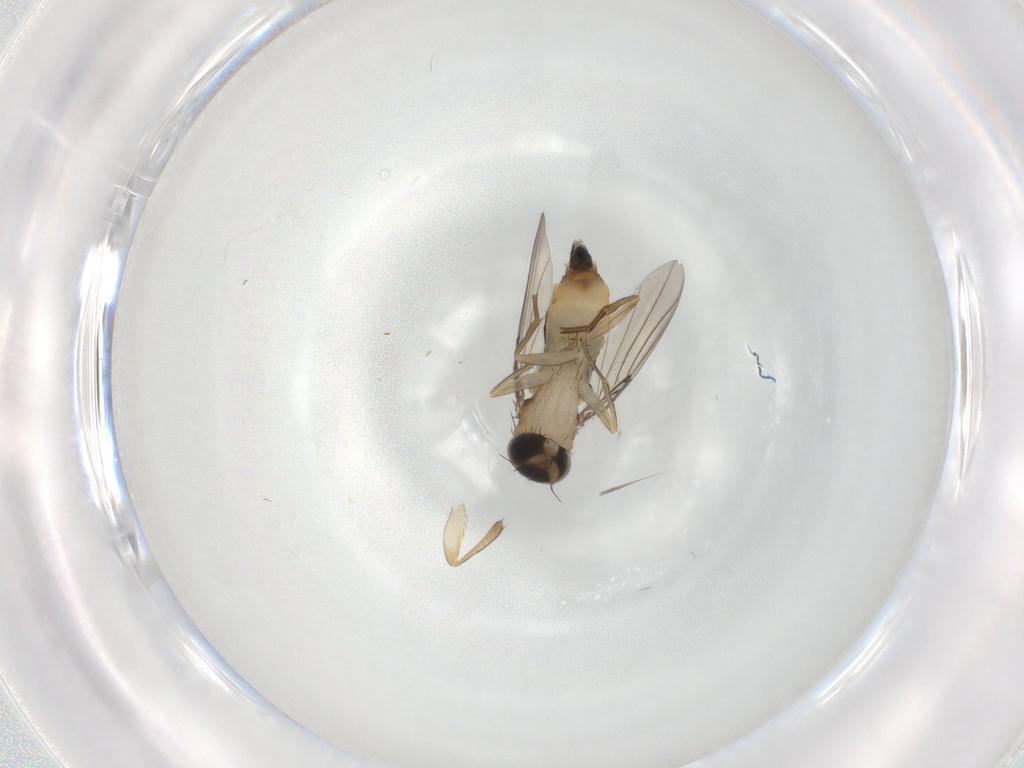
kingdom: Animalia
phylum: Arthropoda
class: Insecta
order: Diptera
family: Phoridae
